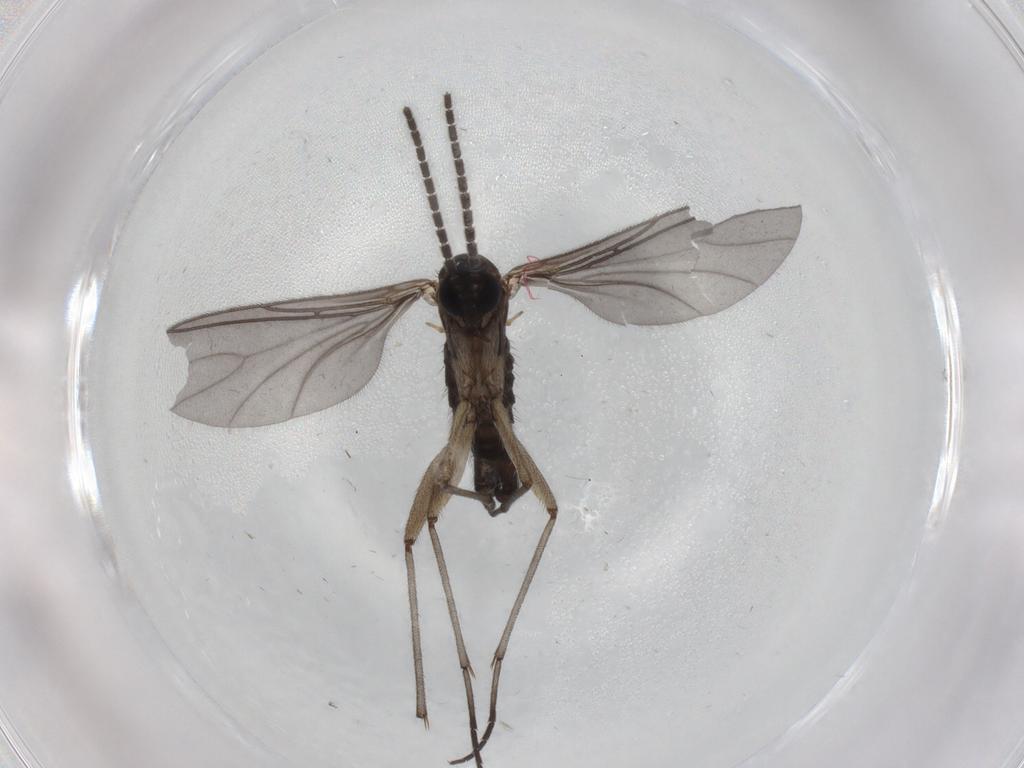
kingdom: Animalia
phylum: Arthropoda
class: Insecta
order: Diptera
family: Sciaridae
